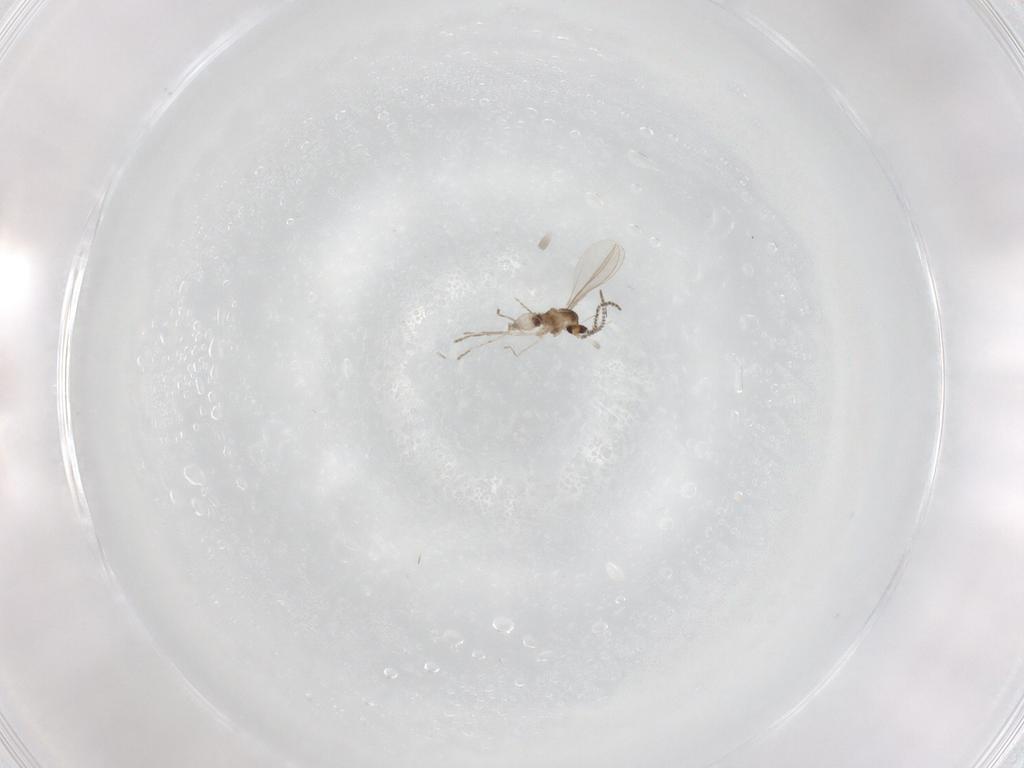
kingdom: Animalia
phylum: Arthropoda
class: Insecta
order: Diptera
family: Cecidomyiidae
